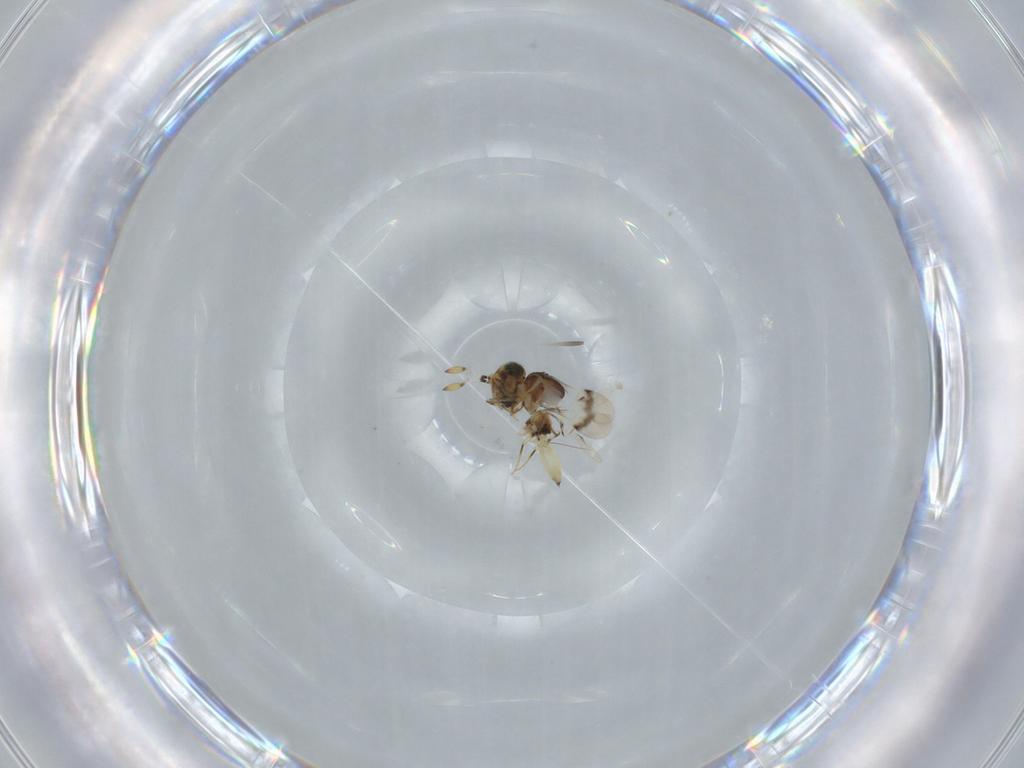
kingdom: Animalia
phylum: Arthropoda
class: Insecta
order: Hymenoptera
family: Scelionidae
